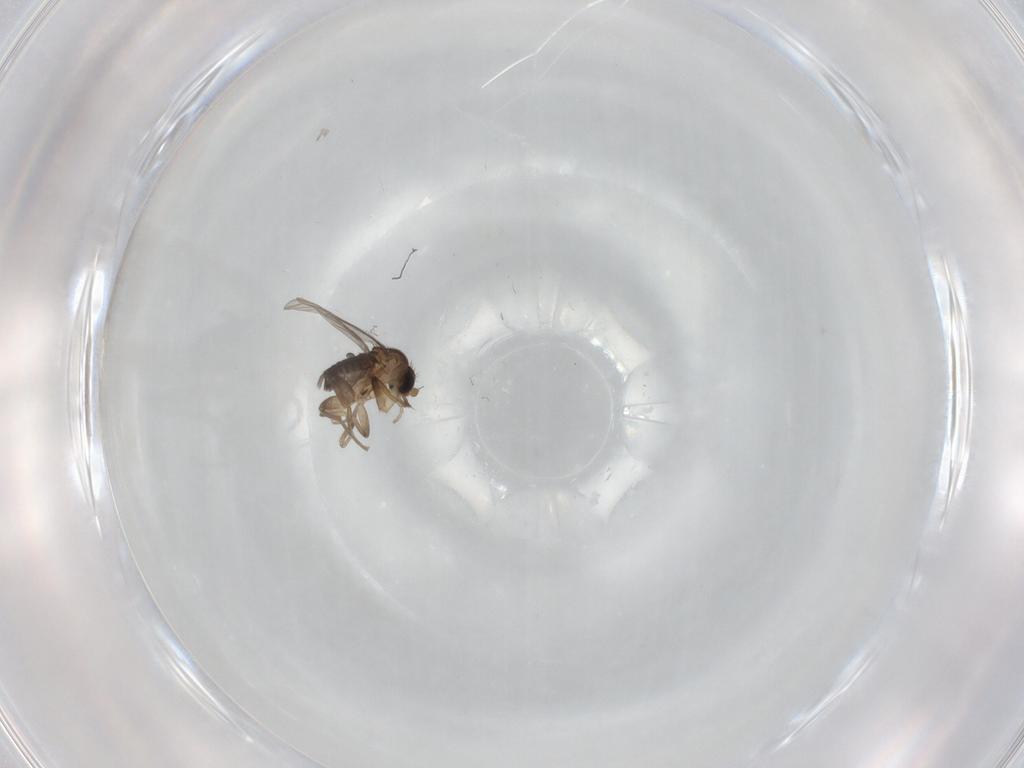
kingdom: Animalia
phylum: Arthropoda
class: Insecta
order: Diptera
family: Phoridae
